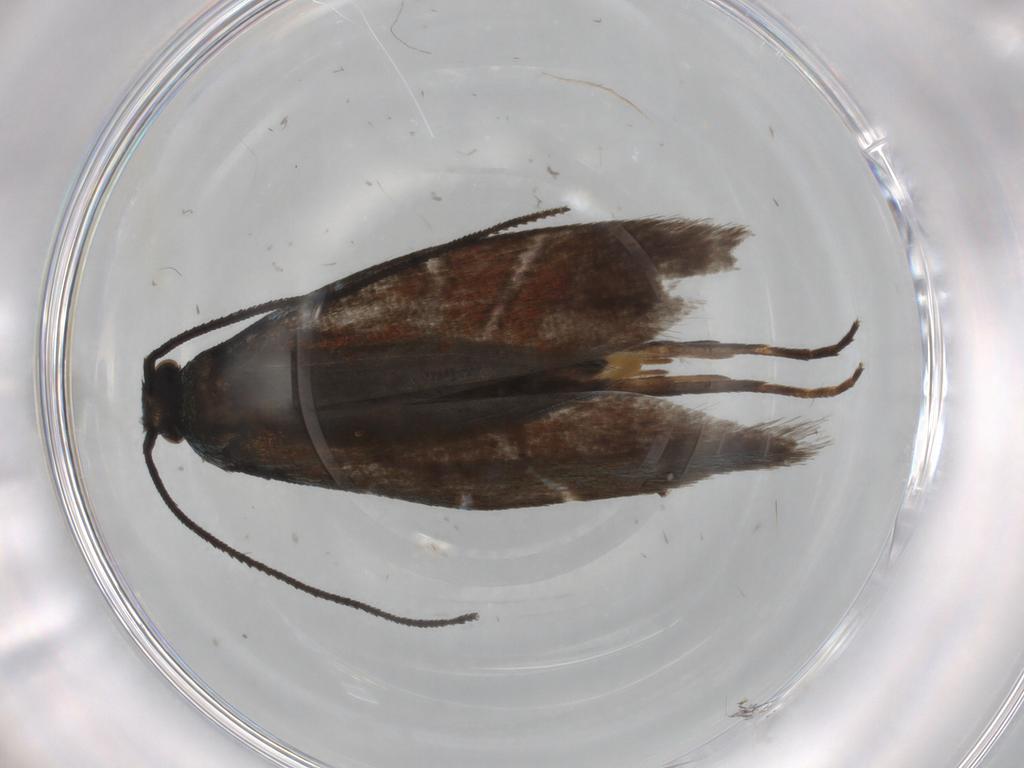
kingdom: Animalia
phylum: Arthropoda
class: Insecta
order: Lepidoptera
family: Argyresthiidae
